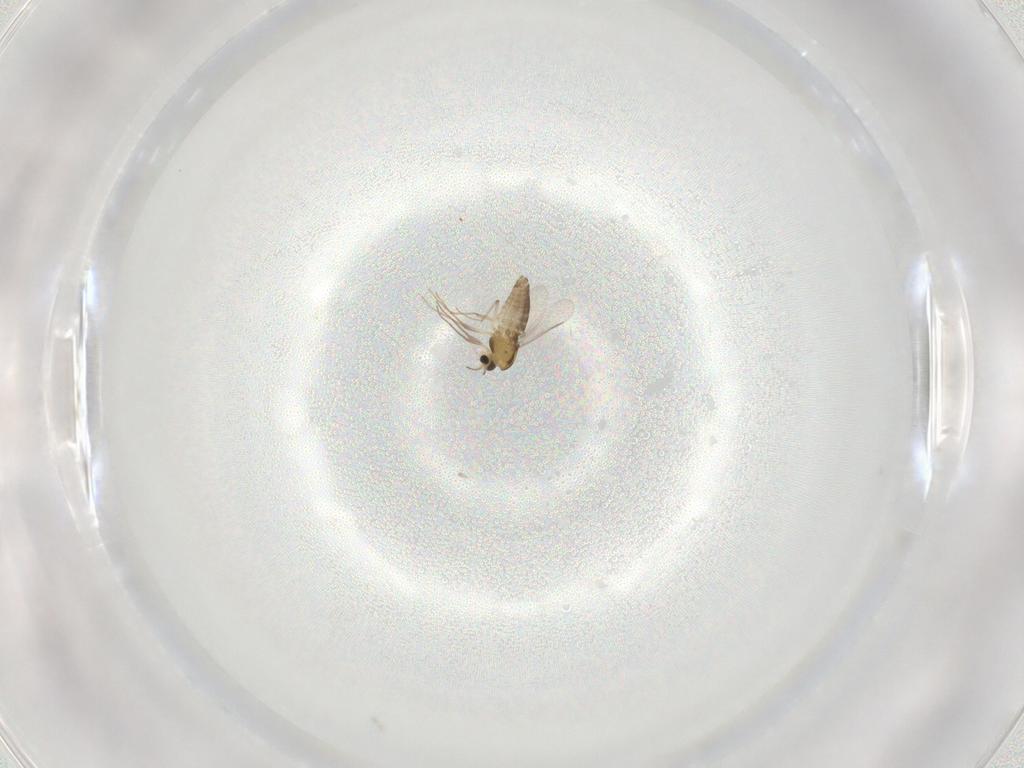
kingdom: Animalia
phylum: Arthropoda
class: Insecta
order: Diptera
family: Chironomidae
